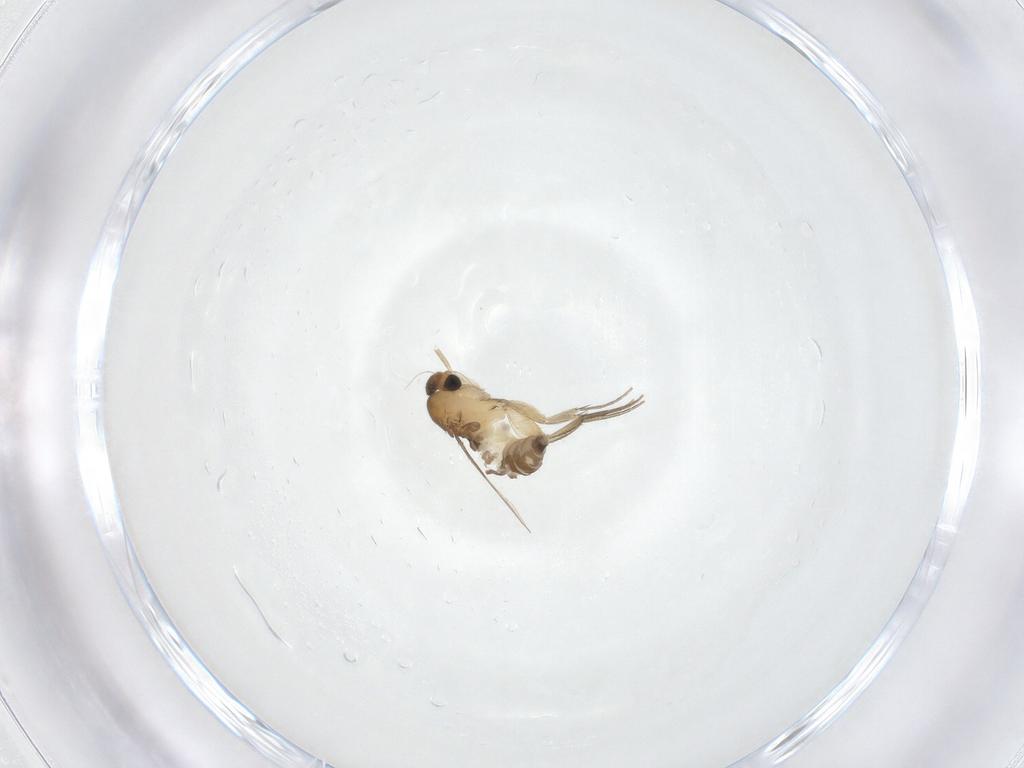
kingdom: Animalia
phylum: Arthropoda
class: Insecta
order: Diptera
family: Phoridae
